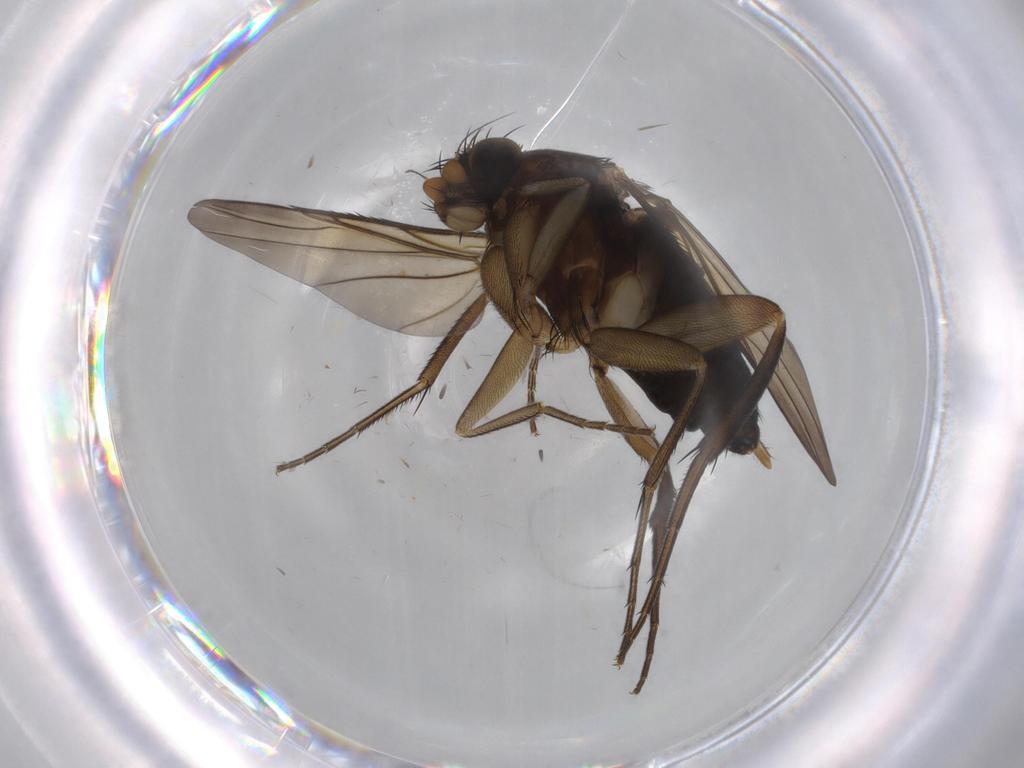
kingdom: Animalia
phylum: Arthropoda
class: Insecta
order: Diptera
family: Phoridae
